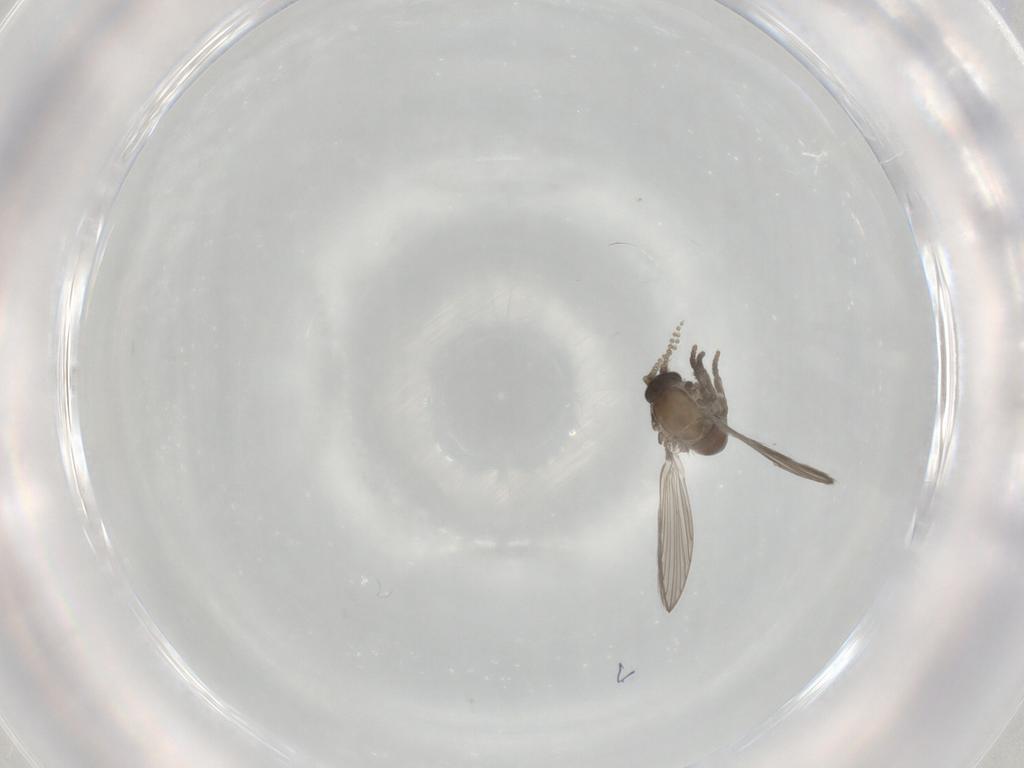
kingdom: Animalia
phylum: Arthropoda
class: Insecta
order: Diptera
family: Psychodidae
